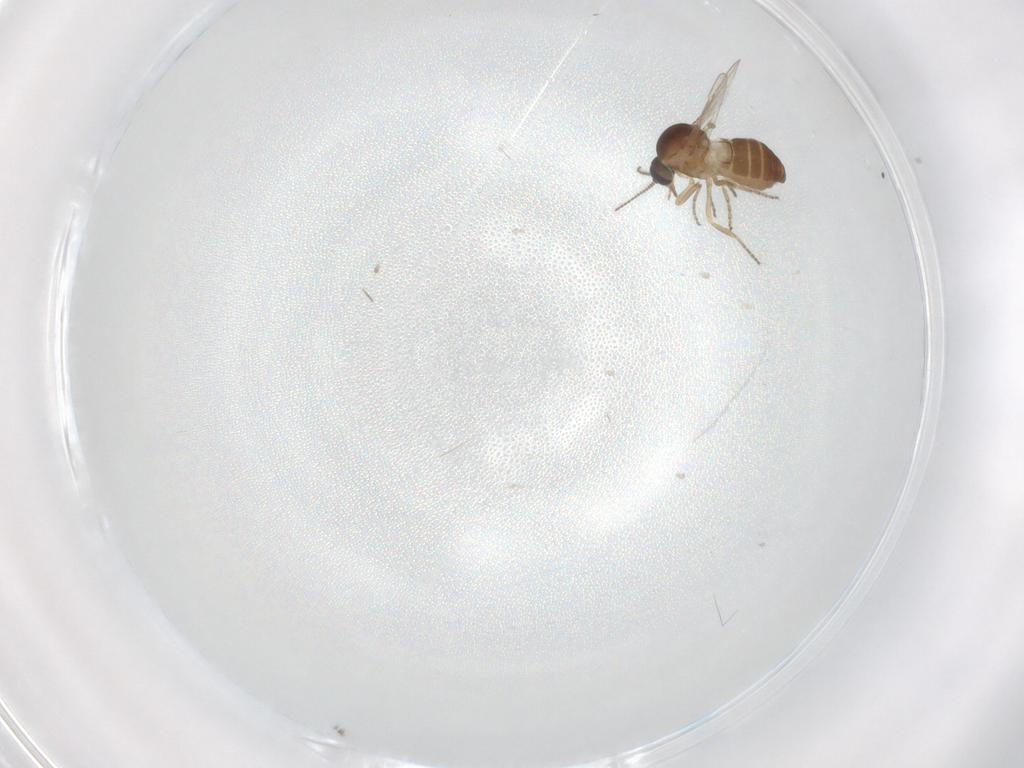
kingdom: Animalia
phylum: Arthropoda
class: Insecta
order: Diptera
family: Ceratopogonidae
